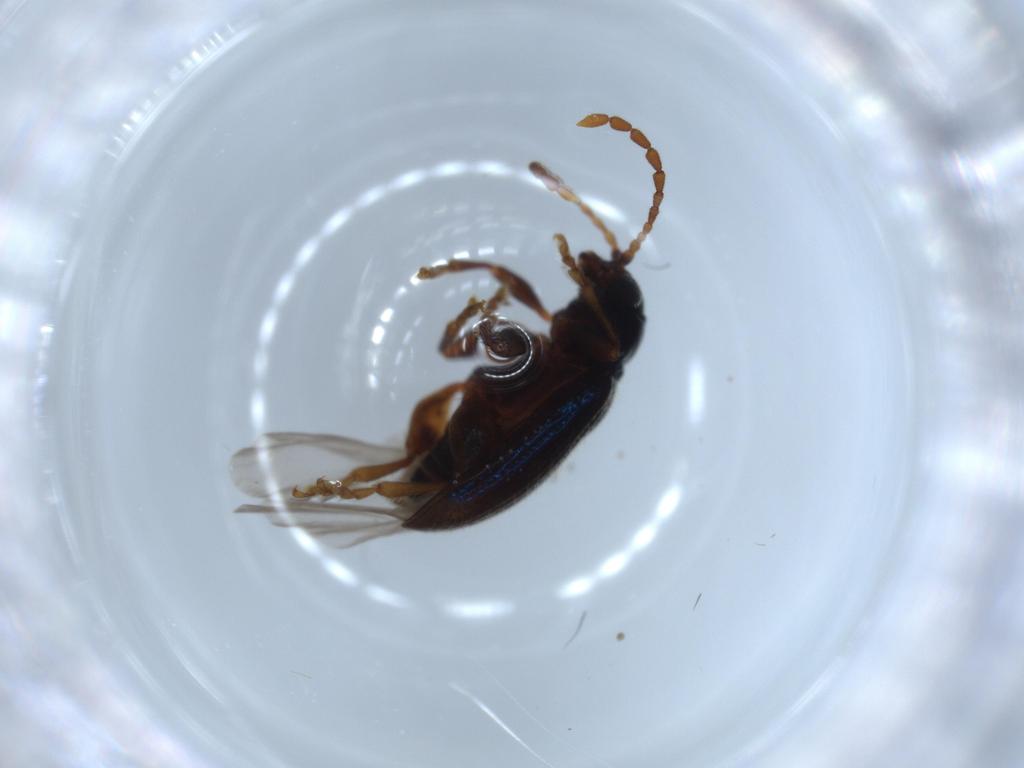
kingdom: Animalia
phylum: Arthropoda
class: Insecta
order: Coleoptera
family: Chrysomelidae
